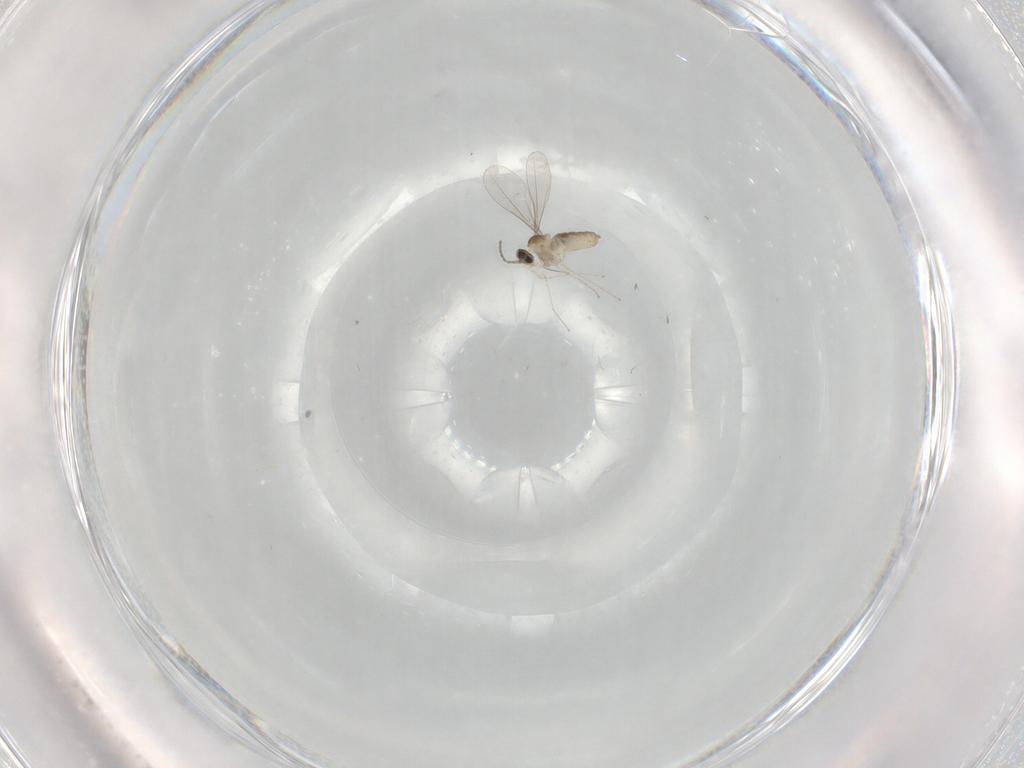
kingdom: Animalia
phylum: Arthropoda
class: Insecta
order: Diptera
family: Cecidomyiidae
